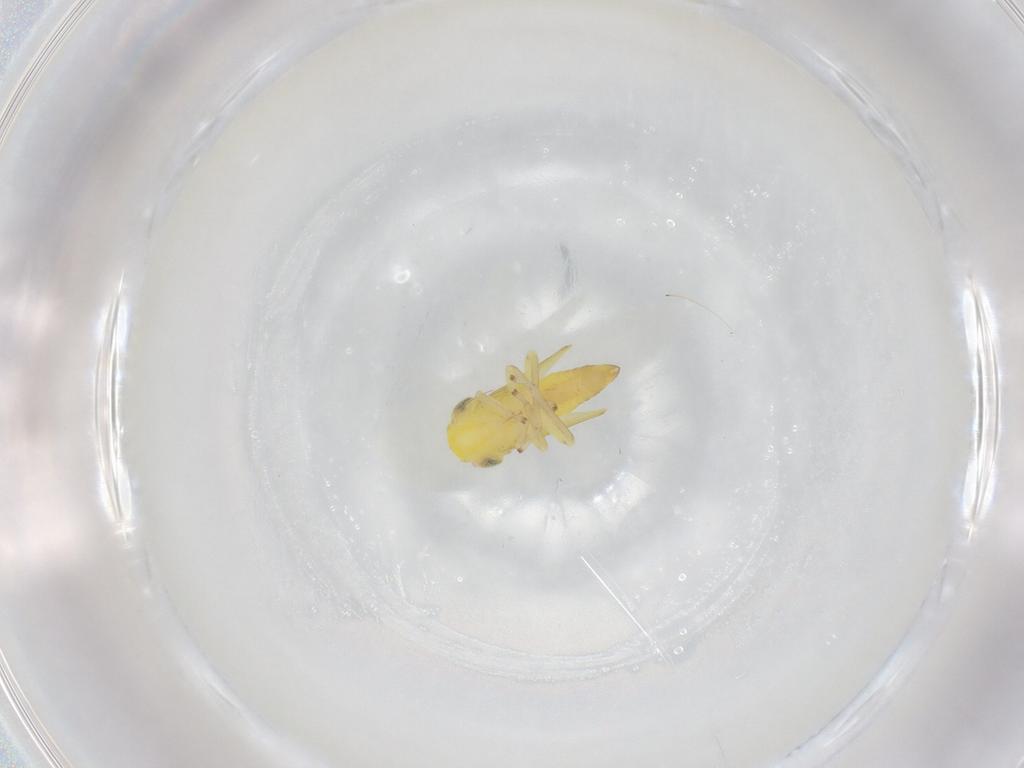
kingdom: Animalia
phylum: Arthropoda
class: Insecta
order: Hemiptera
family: Cicadellidae
